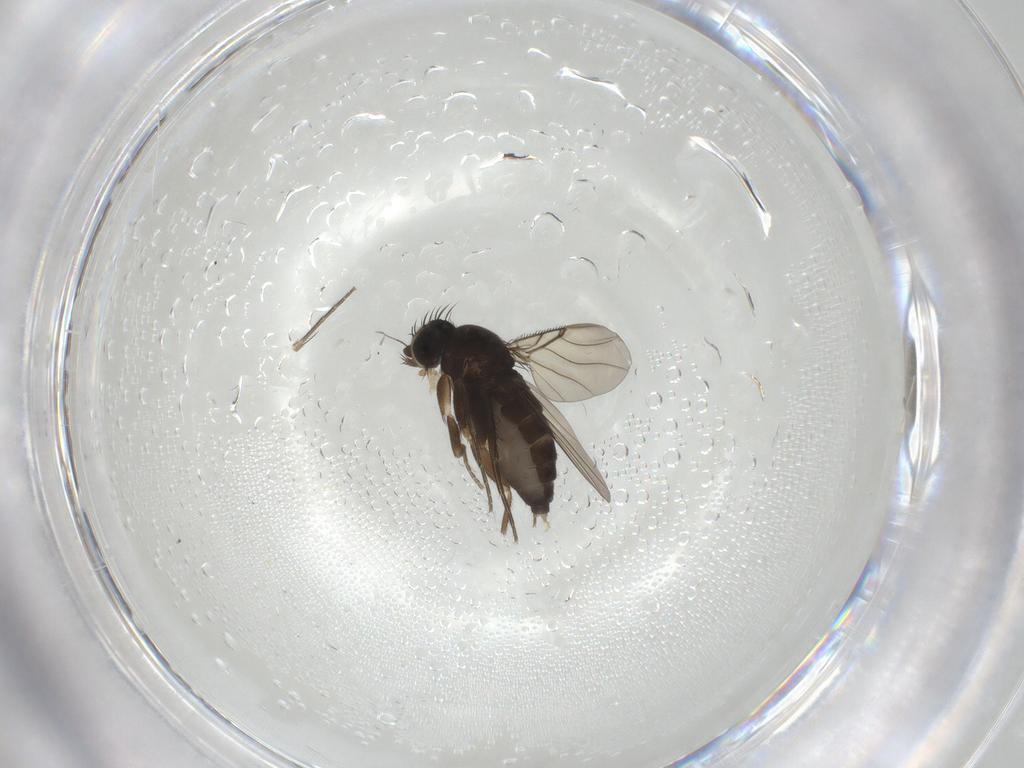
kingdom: Animalia
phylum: Arthropoda
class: Insecta
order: Diptera
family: Phoridae
